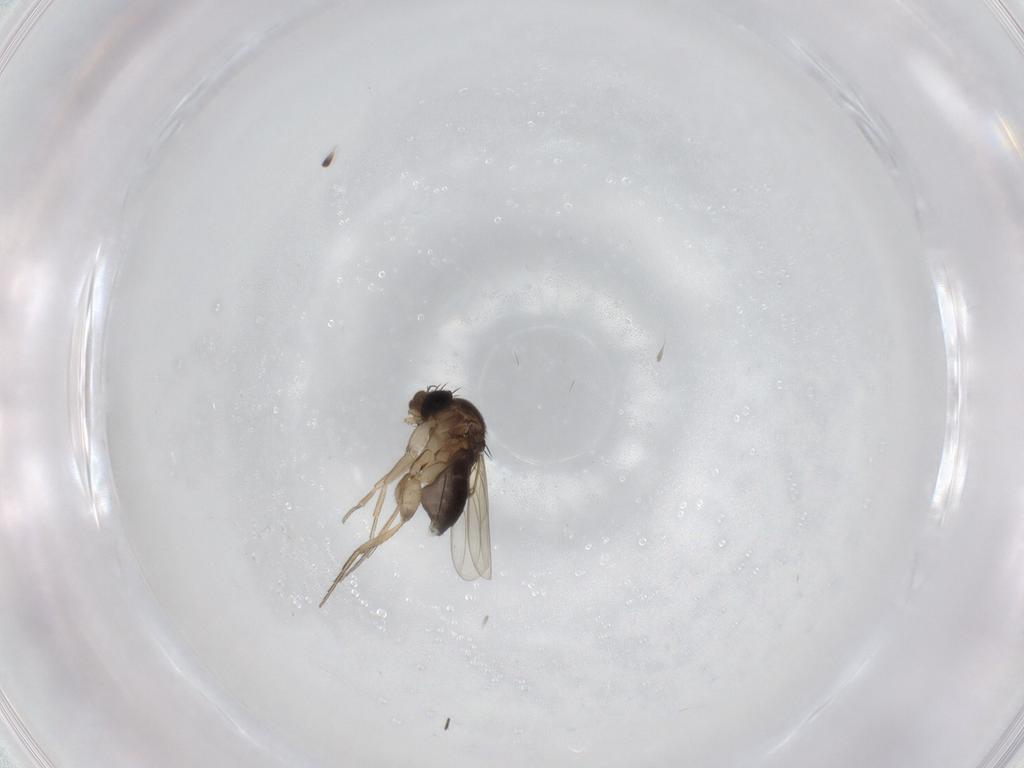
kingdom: Animalia
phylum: Arthropoda
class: Insecta
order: Diptera
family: Phoridae
